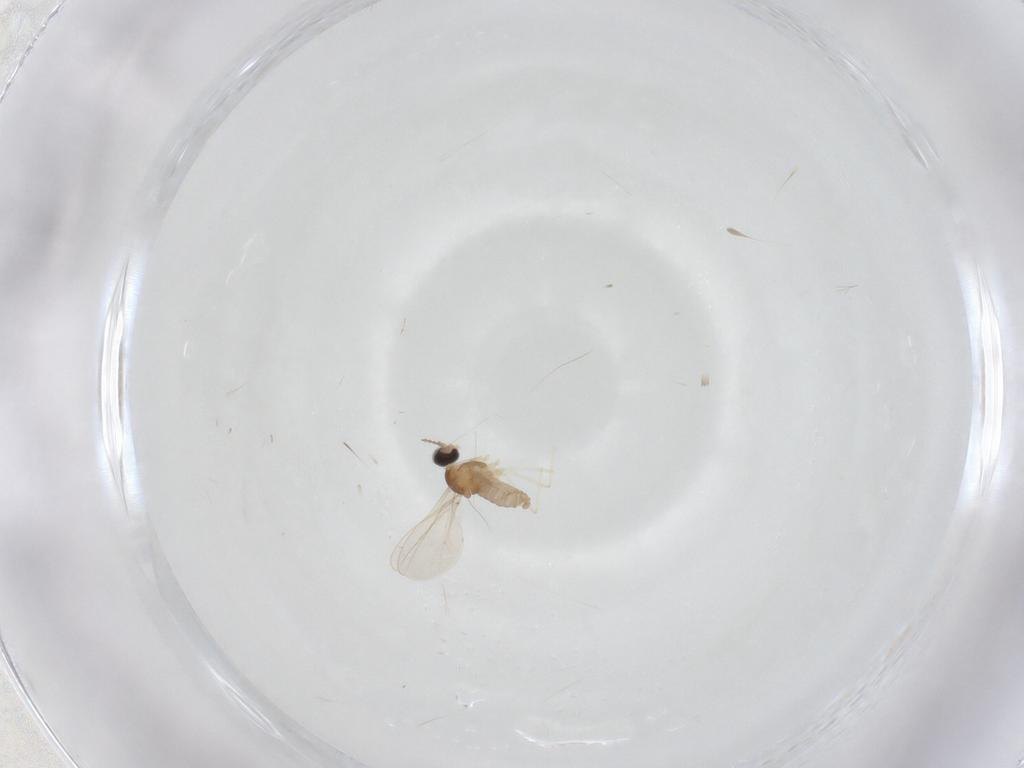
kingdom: Animalia
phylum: Arthropoda
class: Insecta
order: Diptera
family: Cecidomyiidae
